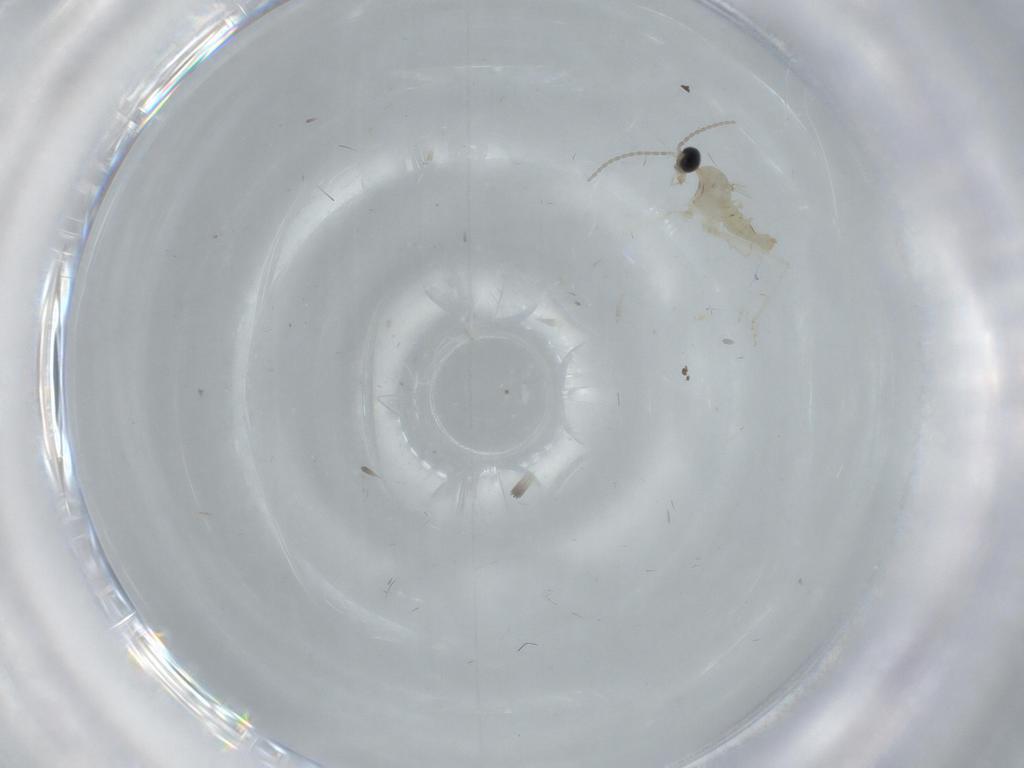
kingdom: Animalia
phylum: Arthropoda
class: Insecta
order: Diptera
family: Cecidomyiidae
